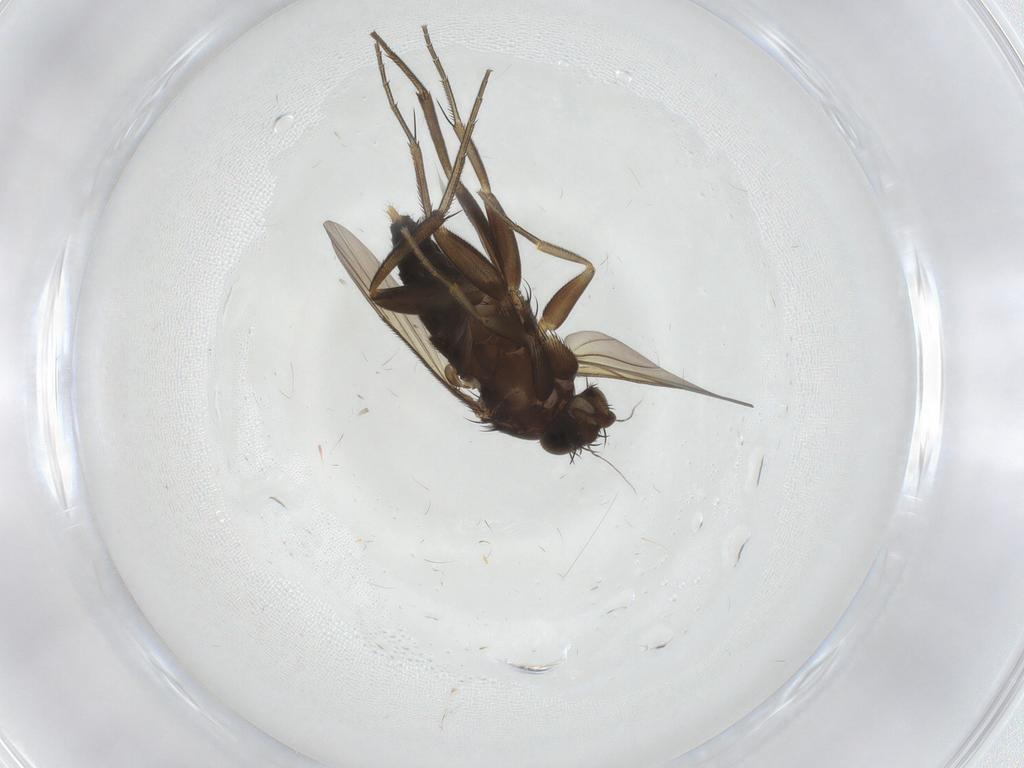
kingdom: Animalia
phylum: Arthropoda
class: Insecta
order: Diptera
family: Phoridae
